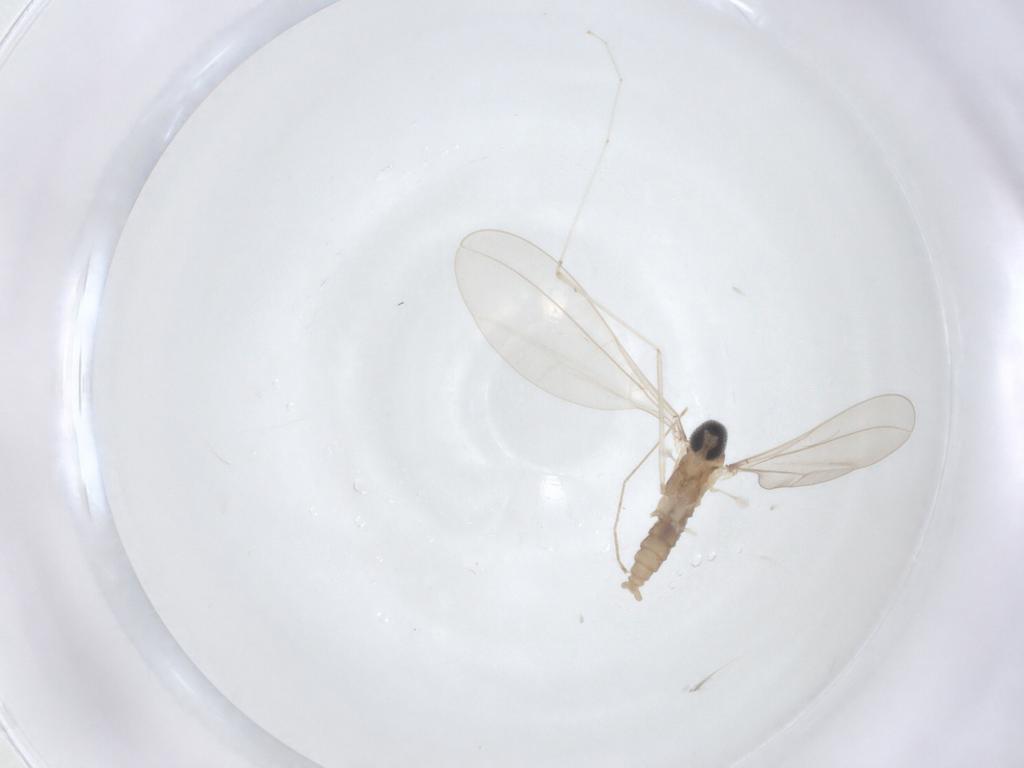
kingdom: Animalia
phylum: Arthropoda
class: Insecta
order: Diptera
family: Cecidomyiidae
